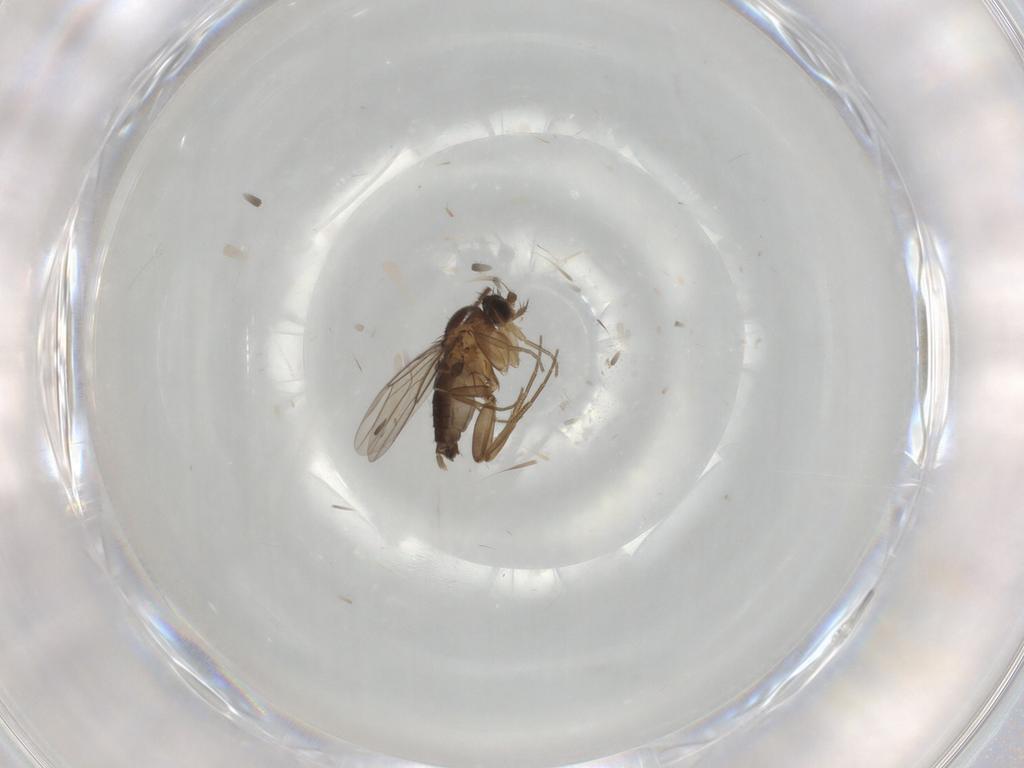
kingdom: Animalia
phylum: Arthropoda
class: Insecta
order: Diptera
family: Phoridae
